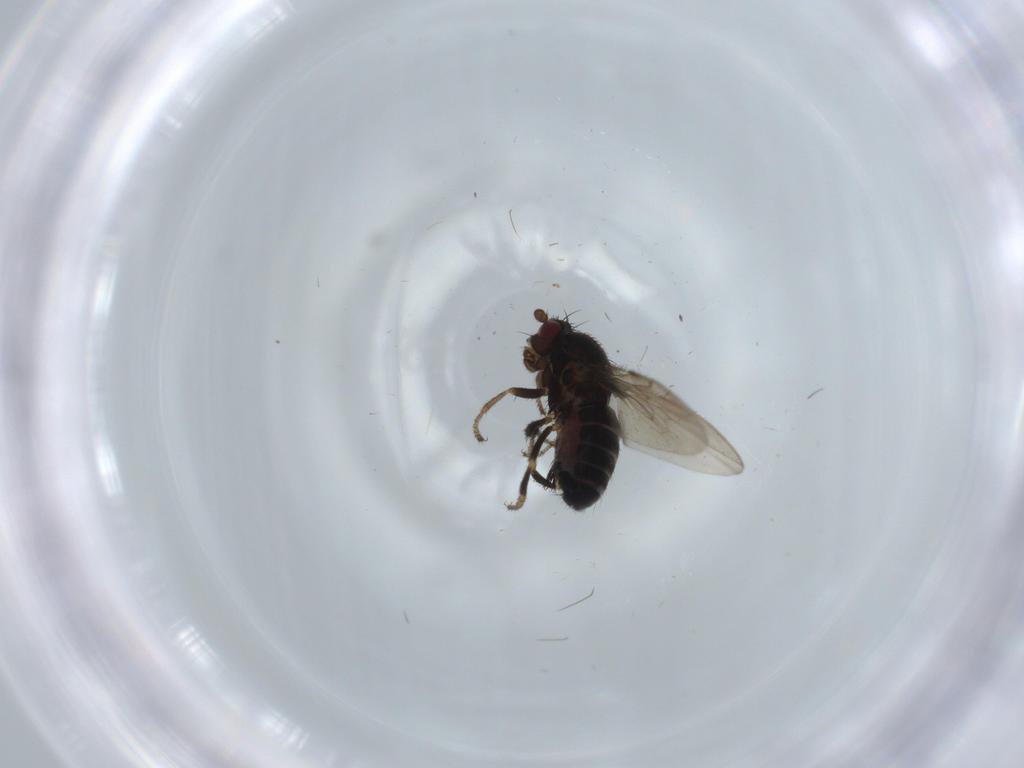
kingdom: Animalia
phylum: Arthropoda
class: Insecta
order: Diptera
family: Sphaeroceridae
